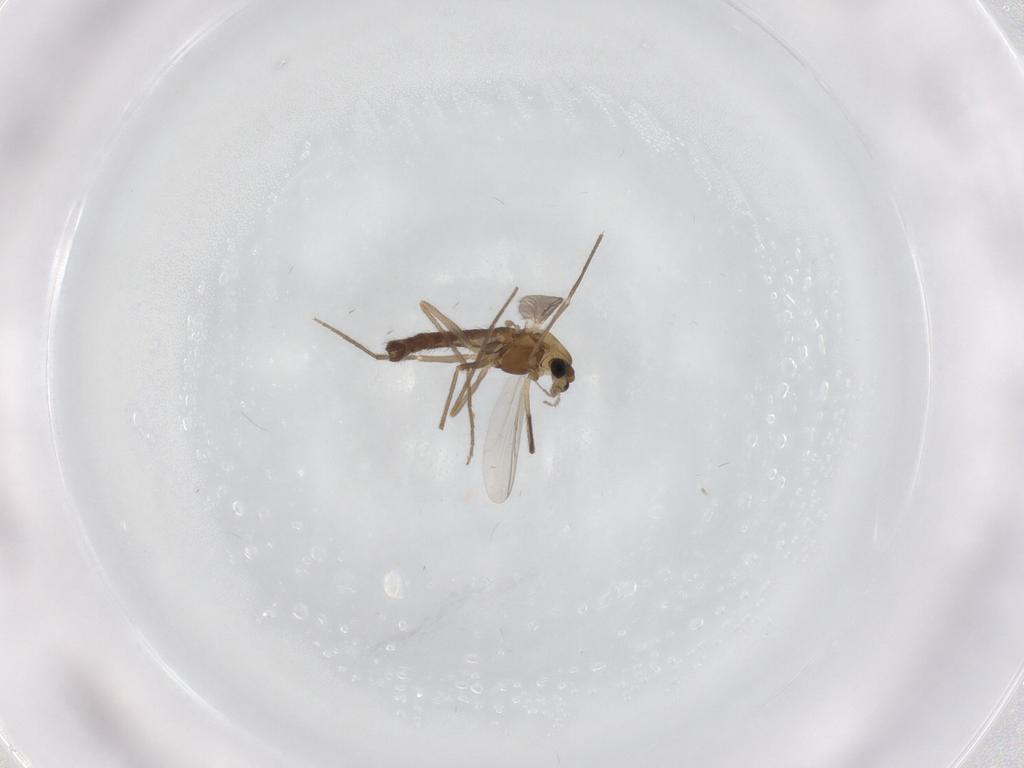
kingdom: Animalia
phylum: Arthropoda
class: Insecta
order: Diptera
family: Chironomidae
